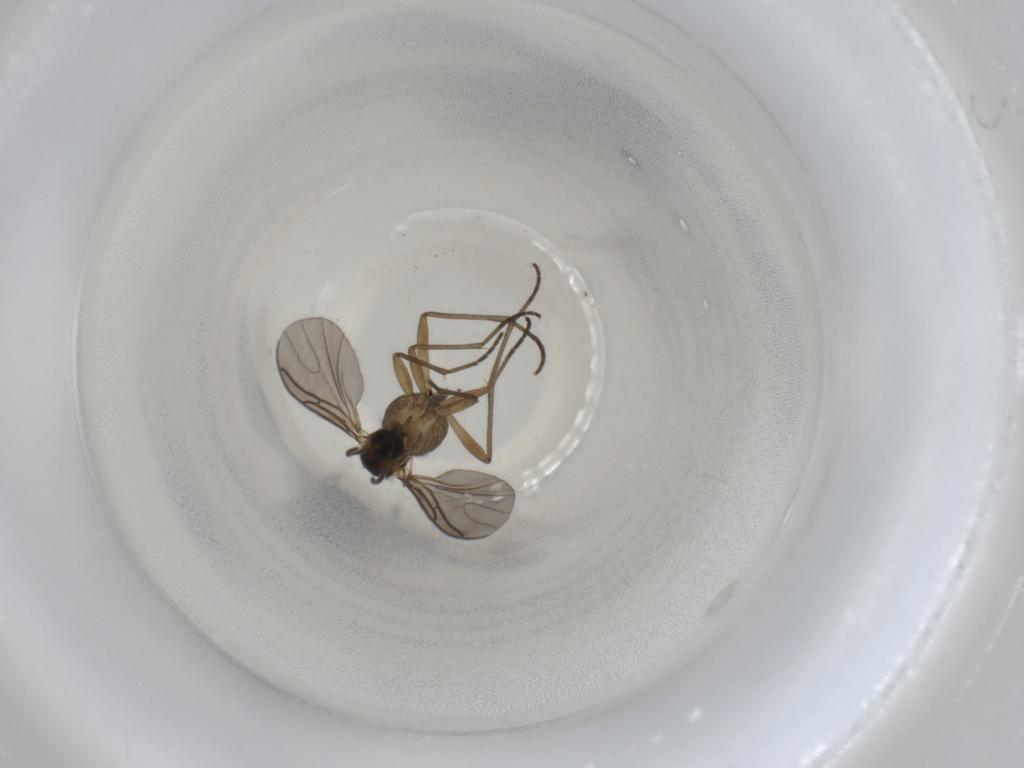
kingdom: Animalia
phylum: Arthropoda
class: Insecta
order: Diptera
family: Sciaridae
